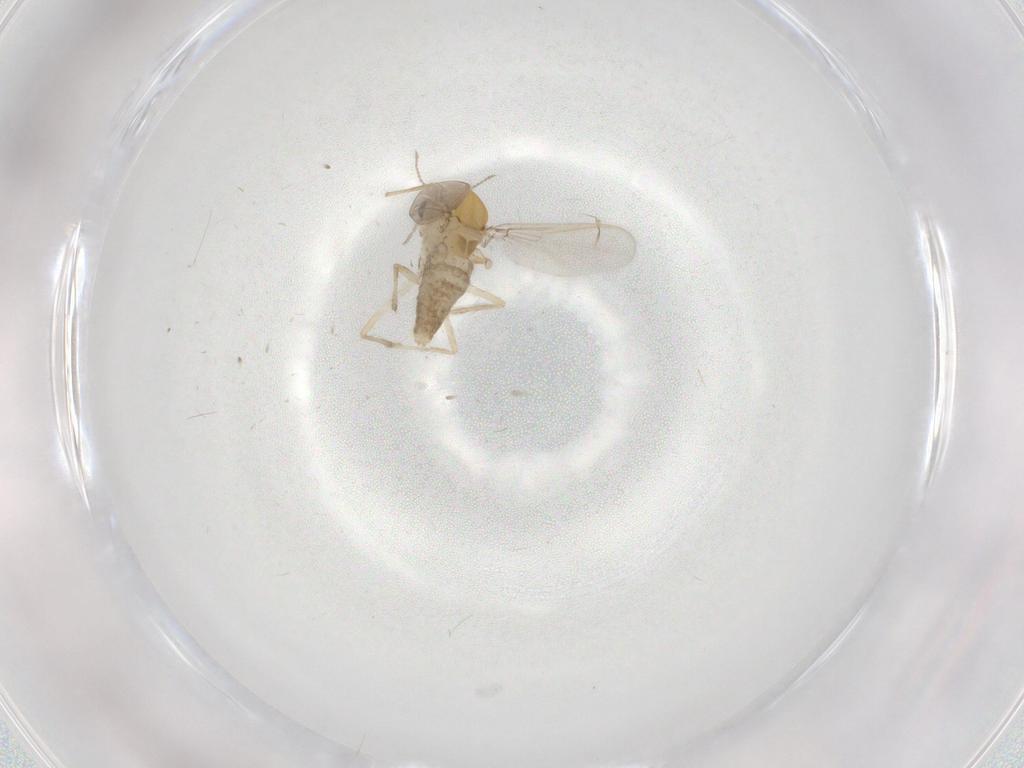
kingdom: Animalia
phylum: Arthropoda
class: Insecta
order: Diptera
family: Chironomidae
